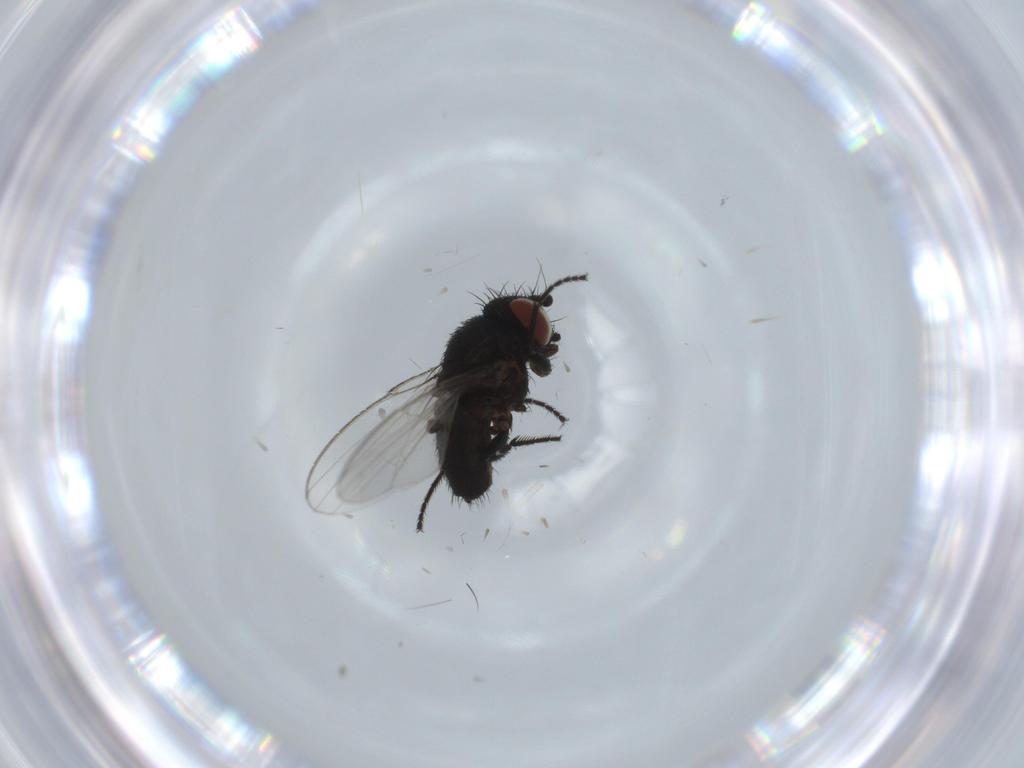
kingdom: Animalia
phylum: Arthropoda
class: Insecta
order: Diptera
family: Milichiidae
